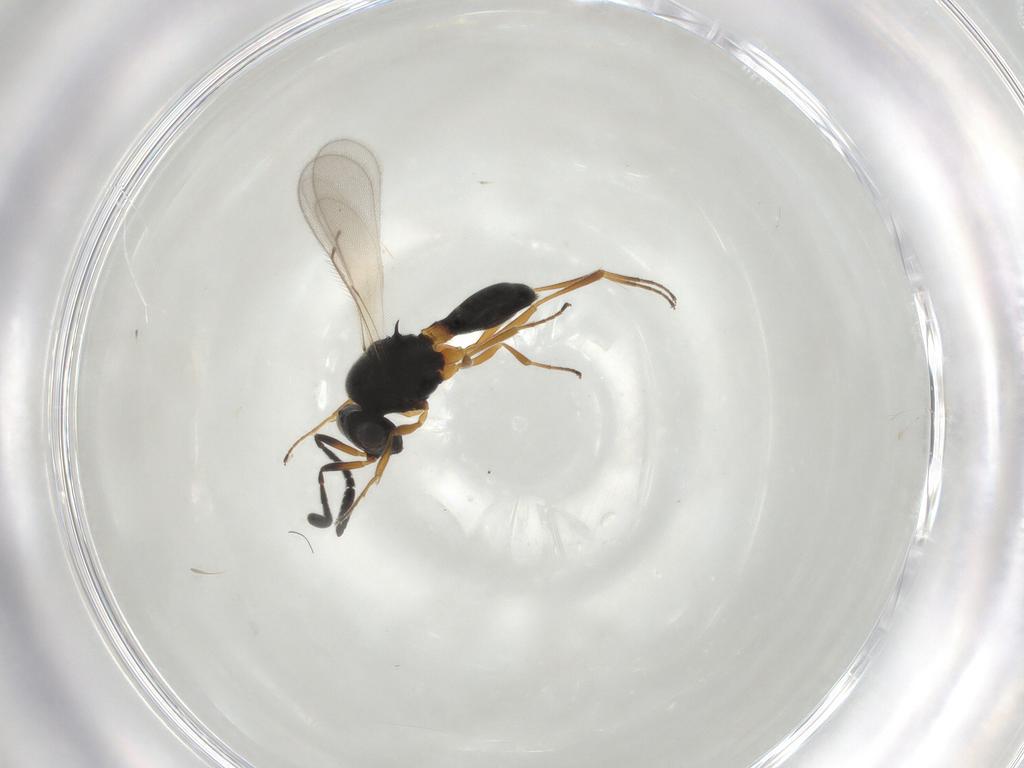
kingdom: Animalia
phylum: Arthropoda
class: Insecta
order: Hymenoptera
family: Scelionidae
